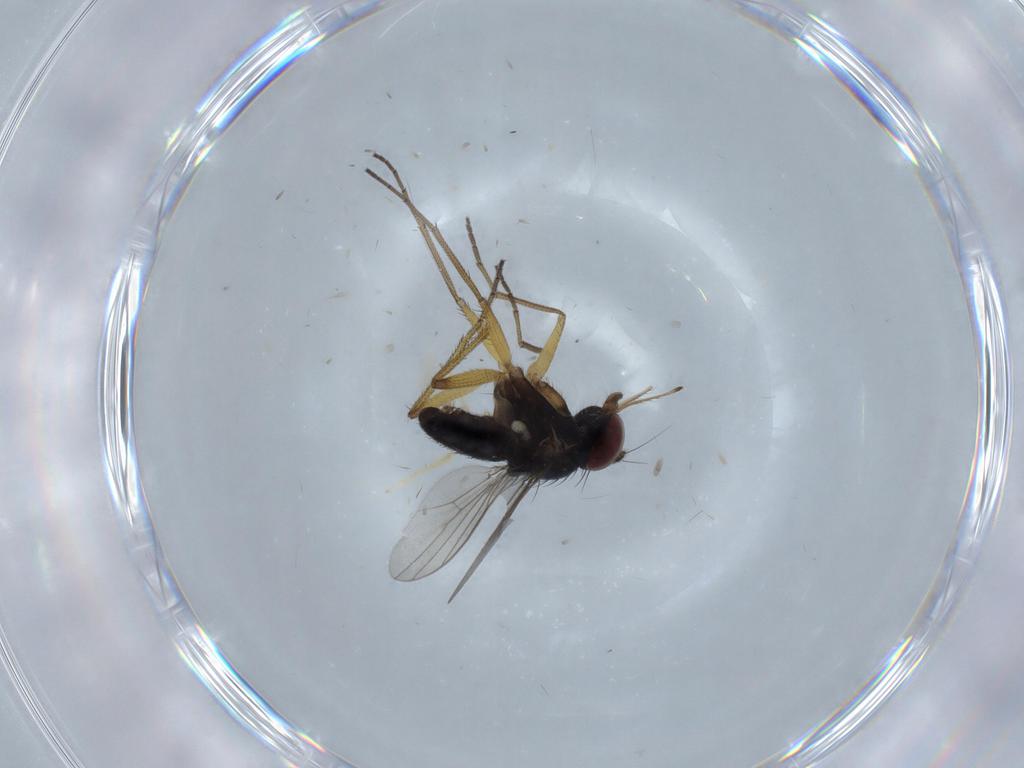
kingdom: Animalia
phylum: Arthropoda
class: Insecta
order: Diptera
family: Dolichopodidae
